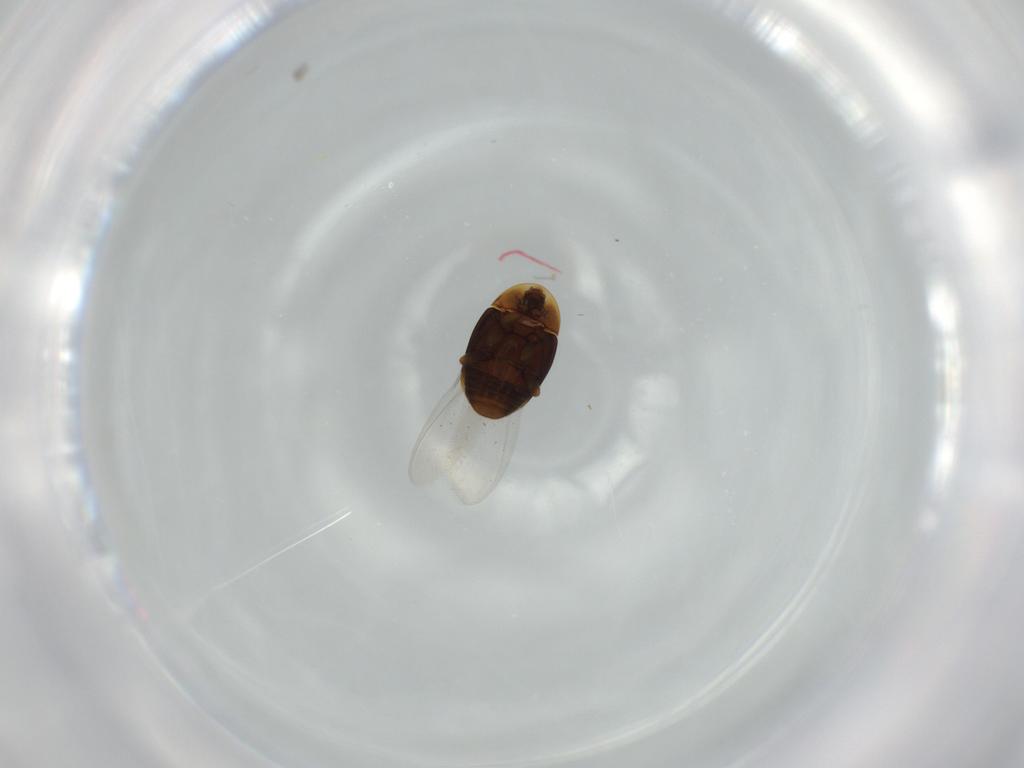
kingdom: Animalia
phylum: Arthropoda
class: Insecta
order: Coleoptera
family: Corylophidae
